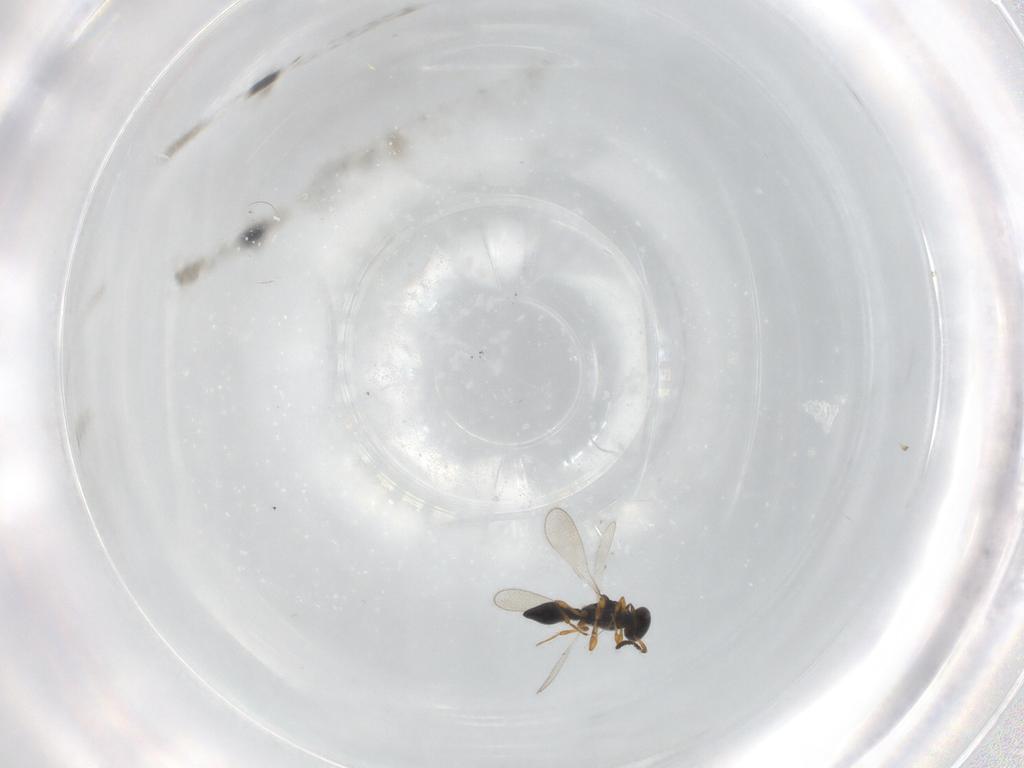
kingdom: Animalia
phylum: Arthropoda
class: Insecta
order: Hymenoptera
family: Platygastridae
